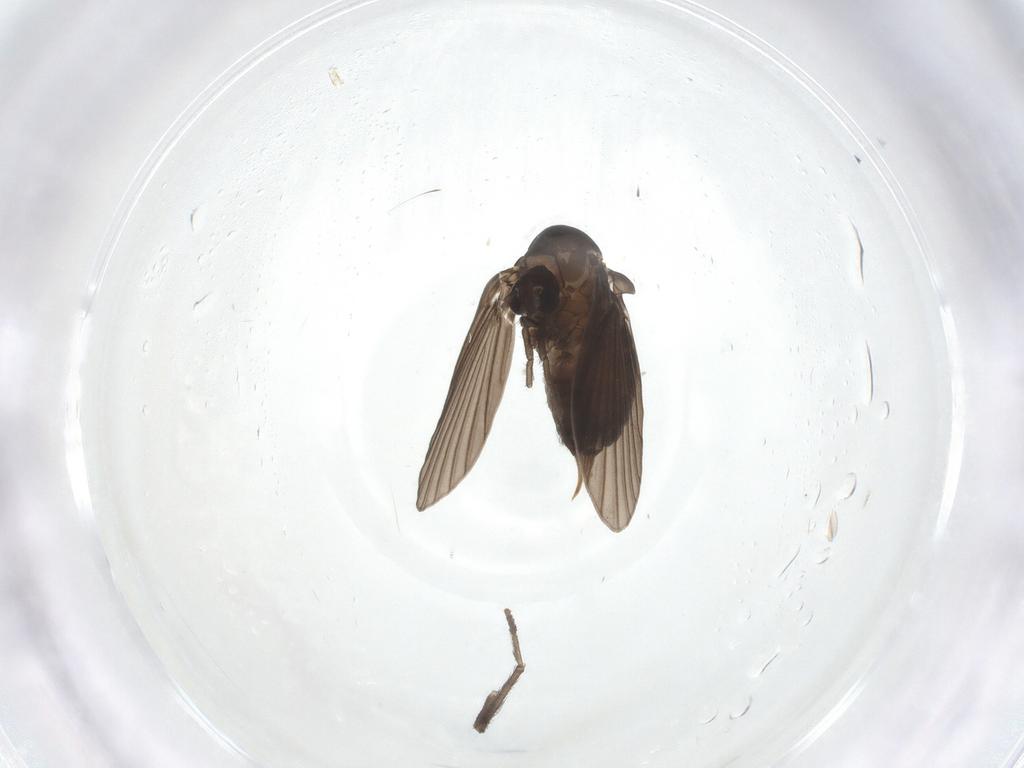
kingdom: Animalia
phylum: Arthropoda
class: Insecta
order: Diptera
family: Psychodidae
